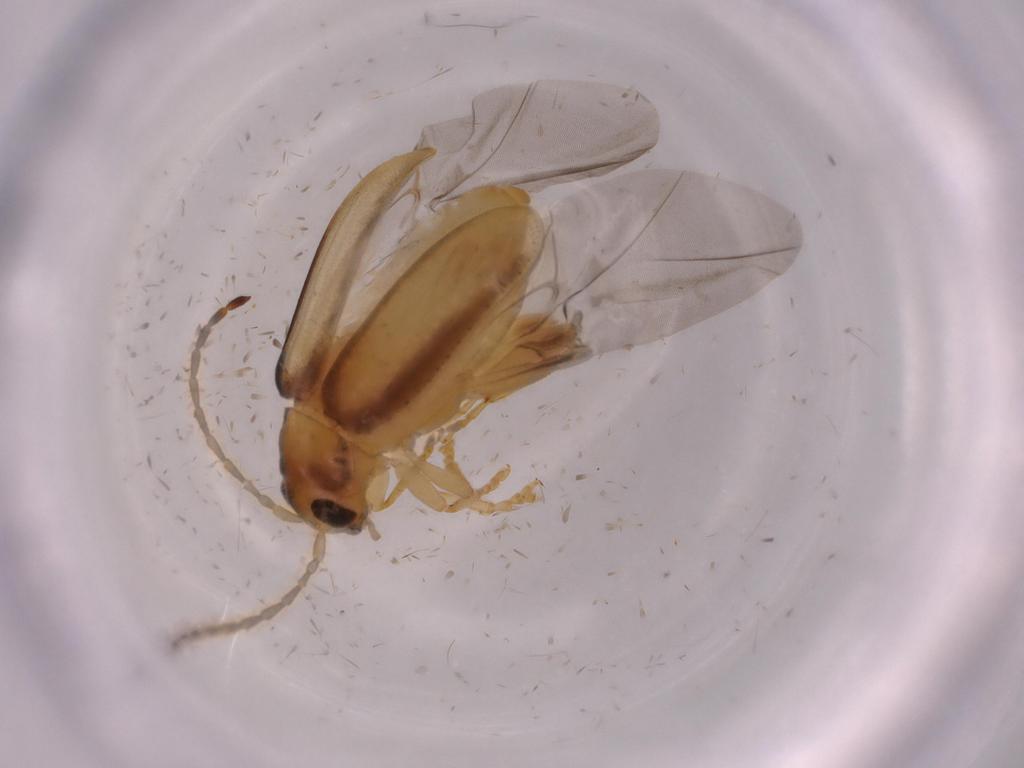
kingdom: Animalia
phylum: Arthropoda
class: Insecta
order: Coleoptera
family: Chrysomelidae
